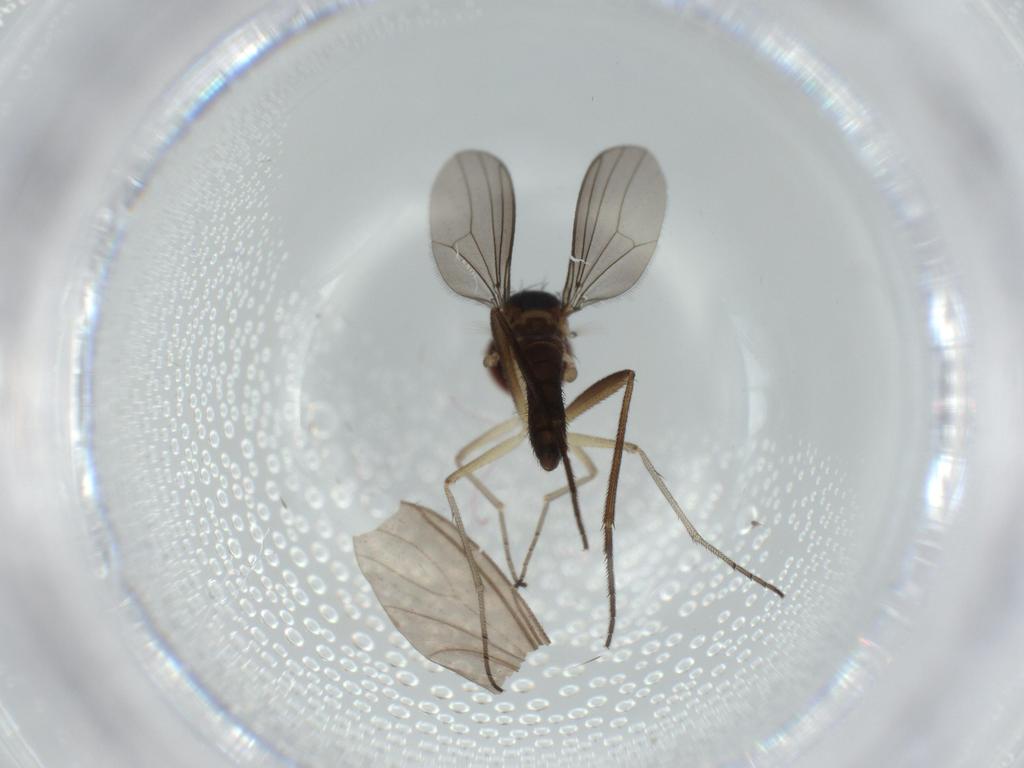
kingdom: Animalia
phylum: Arthropoda
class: Insecta
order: Diptera
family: Dolichopodidae
